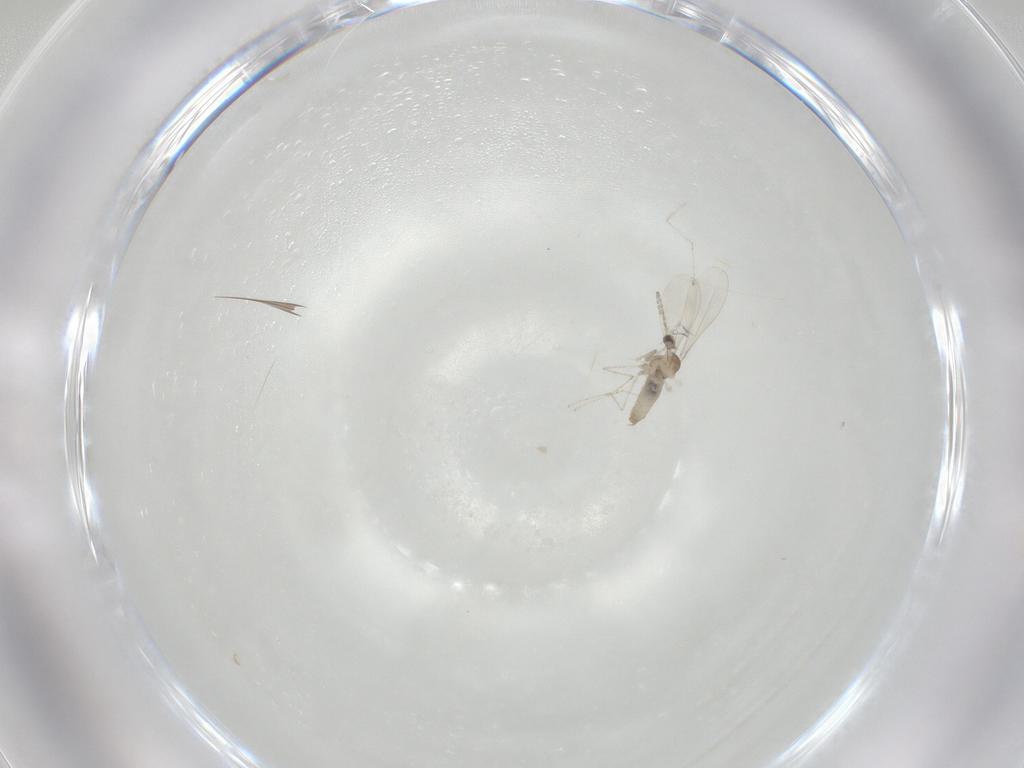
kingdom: Animalia
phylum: Arthropoda
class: Insecta
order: Diptera
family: Ceratopogonidae
